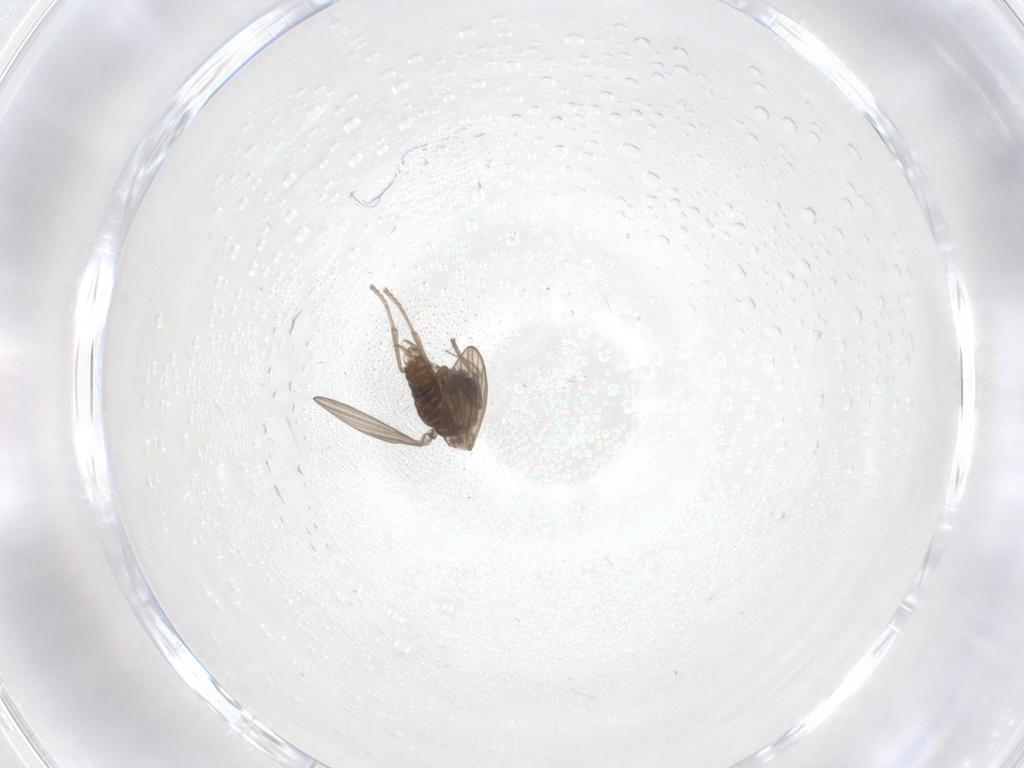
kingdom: Animalia
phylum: Arthropoda
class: Insecta
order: Diptera
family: Psychodidae
